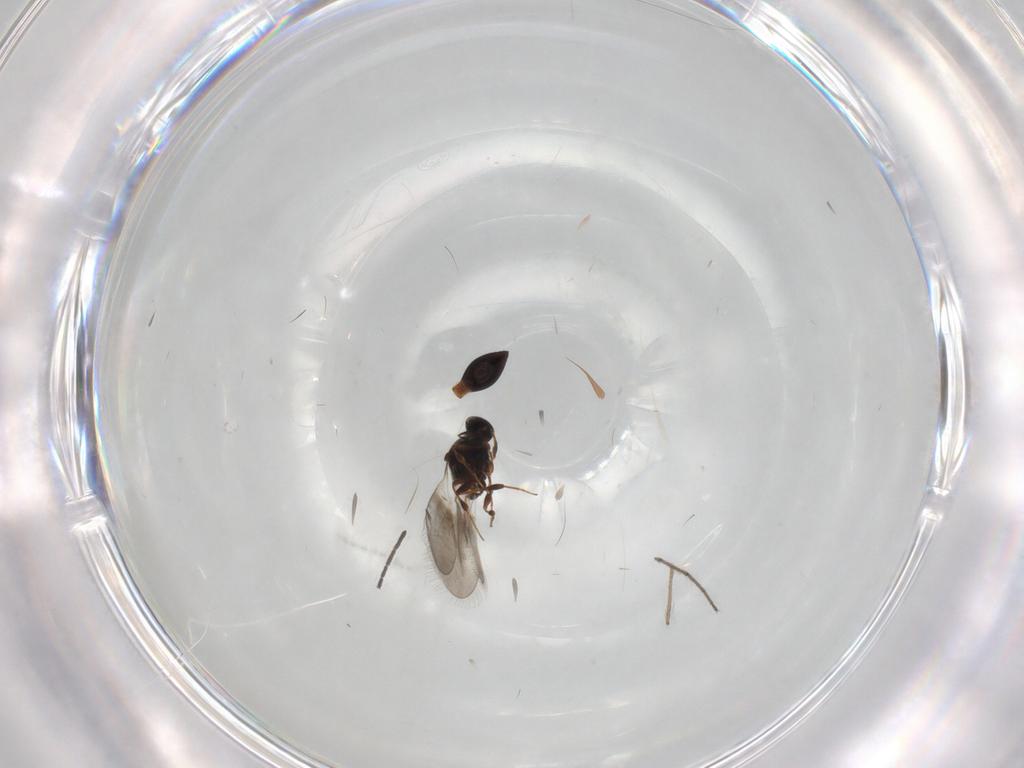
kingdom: Animalia
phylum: Arthropoda
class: Insecta
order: Hymenoptera
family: Platygastridae
